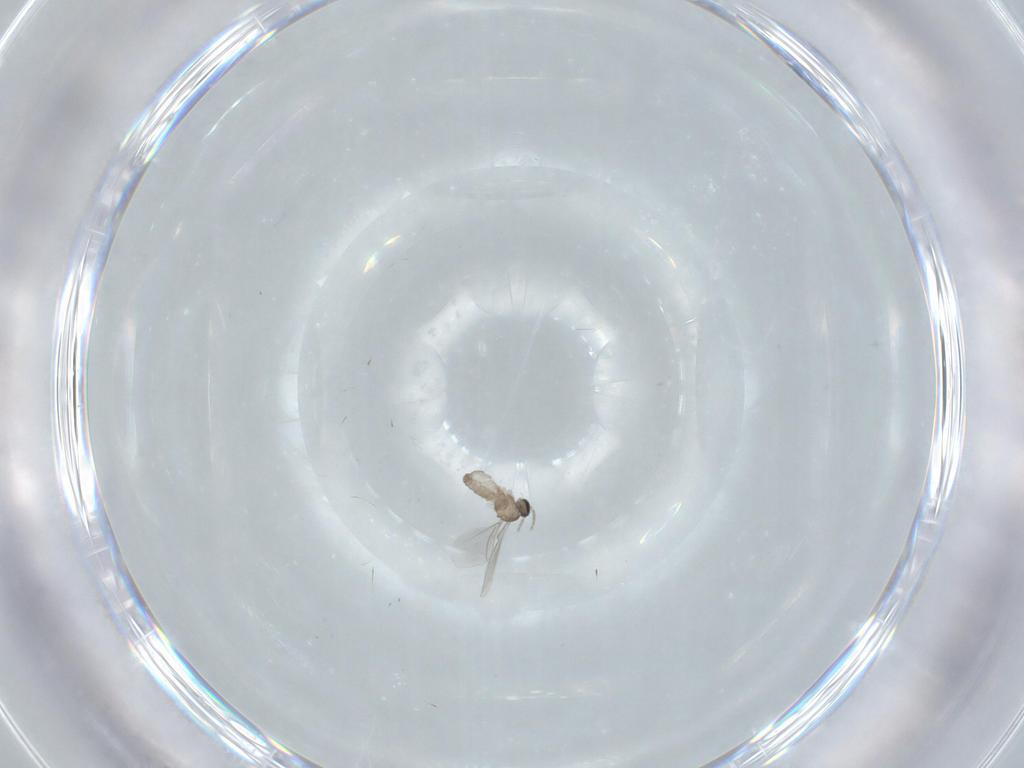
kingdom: Animalia
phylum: Arthropoda
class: Insecta
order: Diptera
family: Cecidomyiidae
